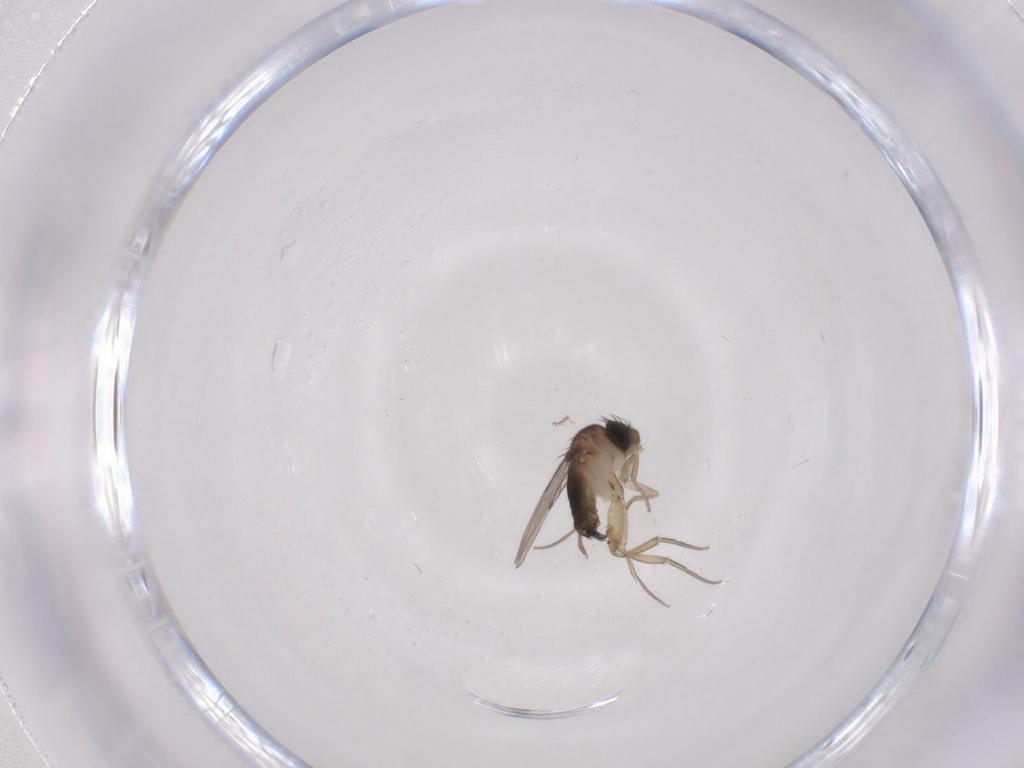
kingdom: Animalia
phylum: Arthropoda
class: Insecta
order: Diptera
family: Phoridae
